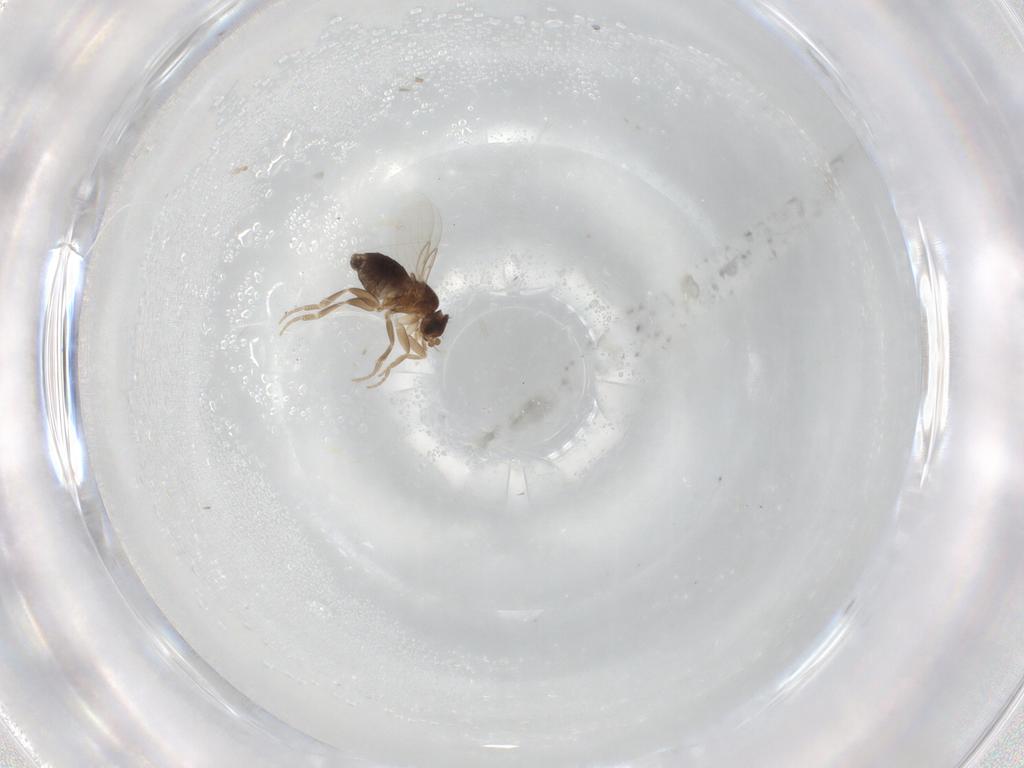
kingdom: Animalia
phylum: Arthropoda
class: Insecta
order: Diptera
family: Phoridae
